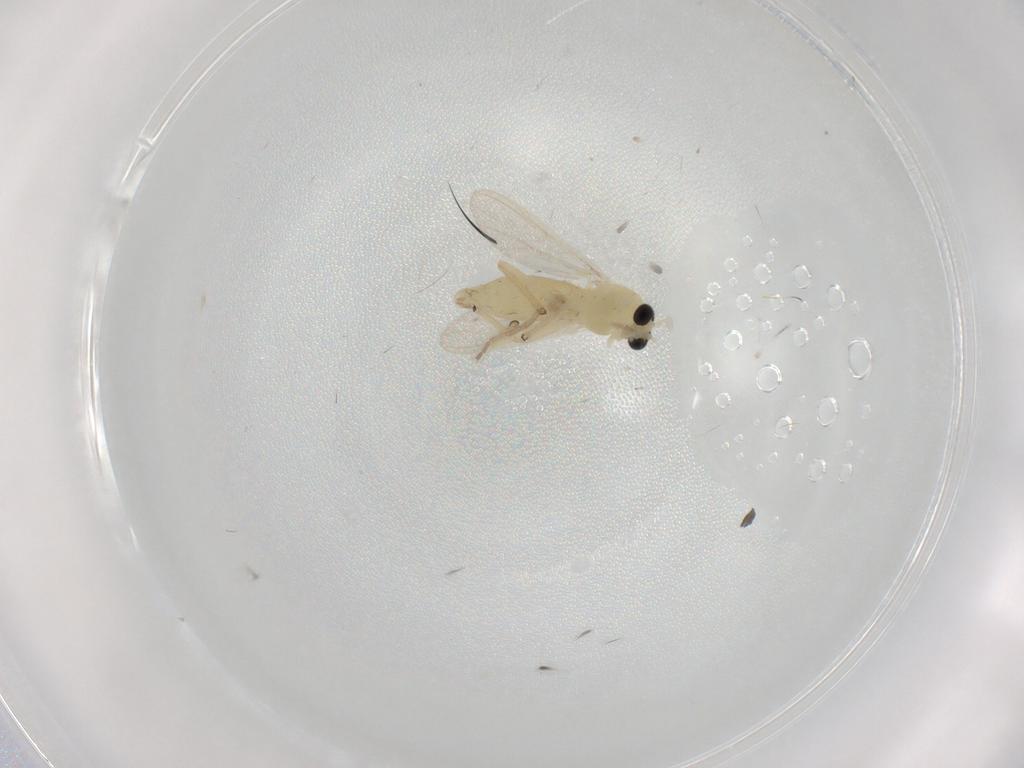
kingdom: Animalia
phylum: Arthropoda
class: Insecta
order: Diptera
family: Chironomidae
